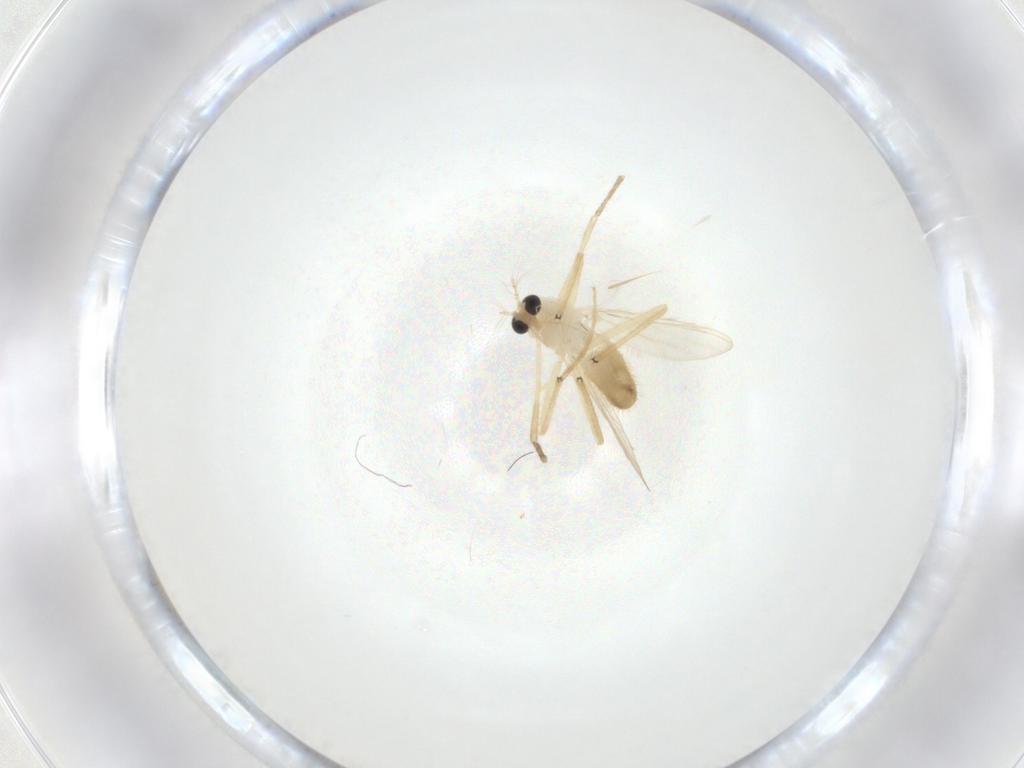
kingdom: Animalia
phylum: Arthropoda
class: Insecta
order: Diptera
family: Chironomidae
